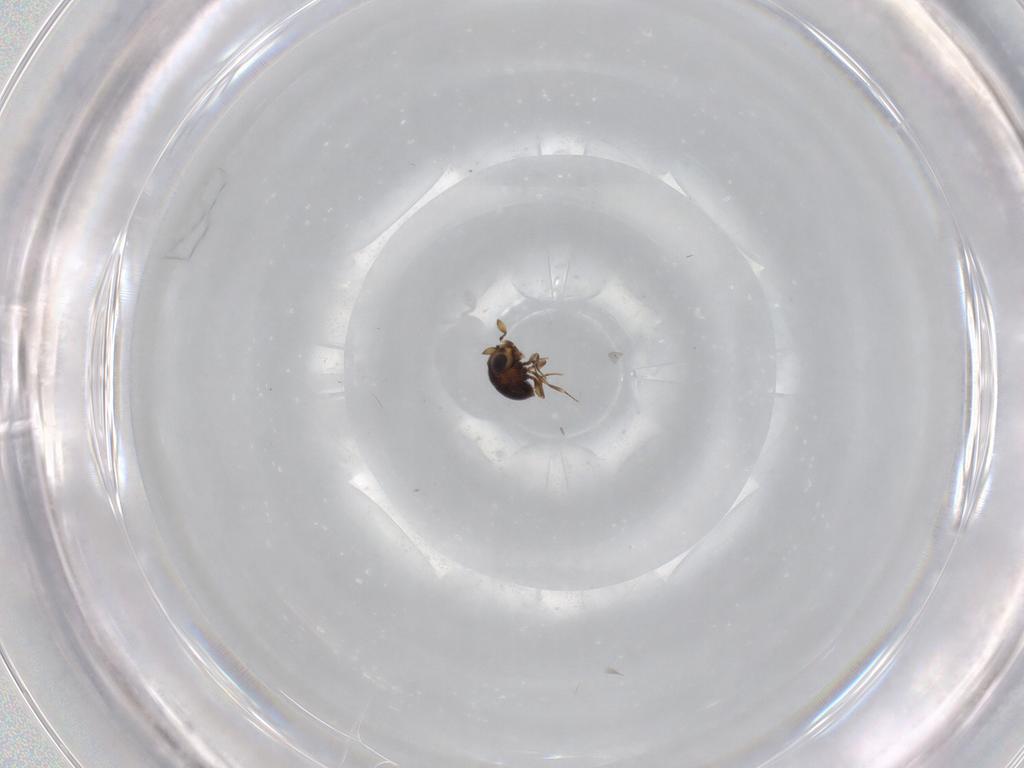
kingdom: Animalia
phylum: Arthropoda
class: Insecta
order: Hymenoptera
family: Scelionidae
